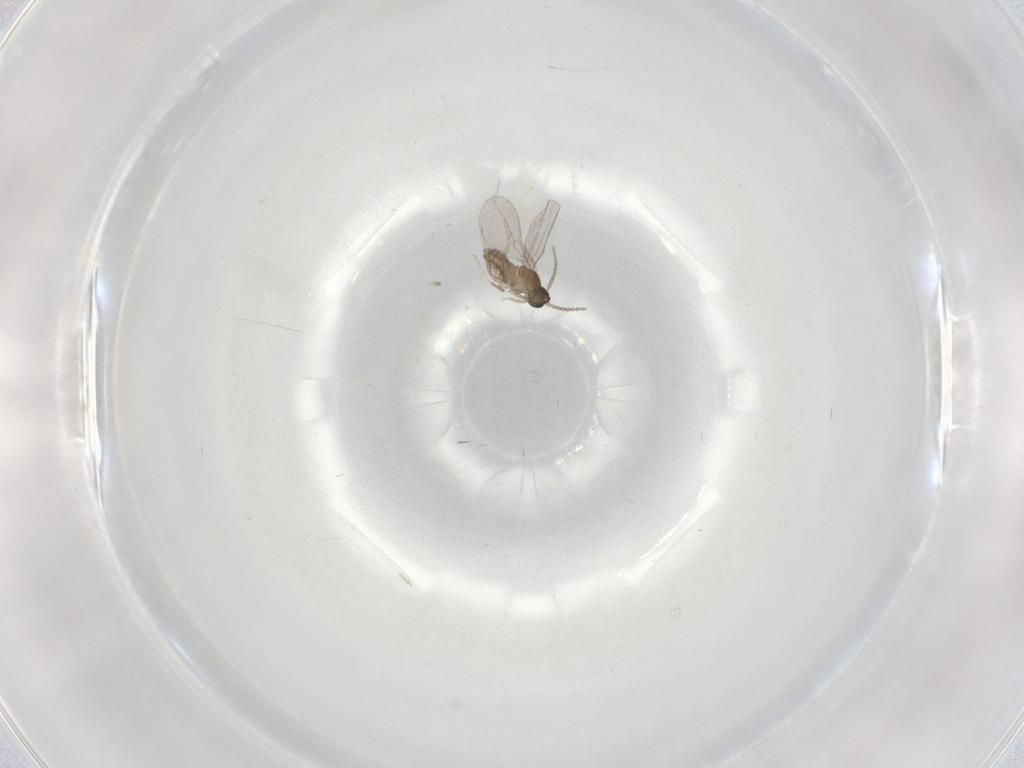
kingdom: Animalia
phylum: Arthropoda
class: Insecta
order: Diptera
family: Cecidomyiidae
